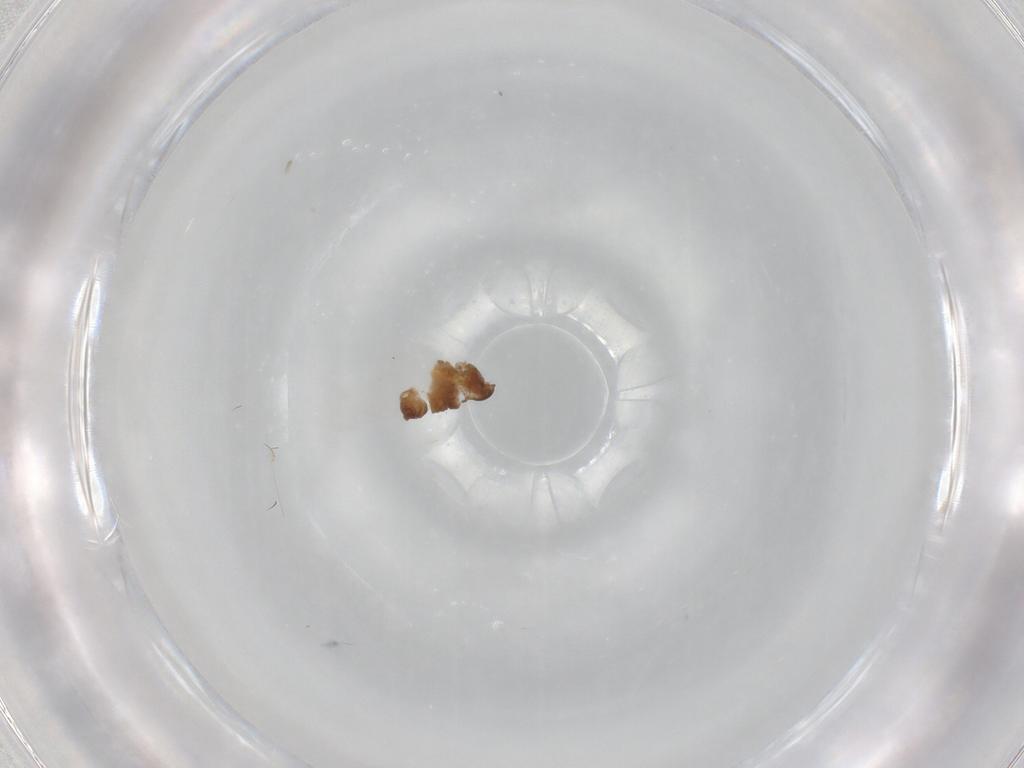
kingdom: Animalia
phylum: Arthropoda
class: Insecta
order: Diptera
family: Cecidomyiidae
